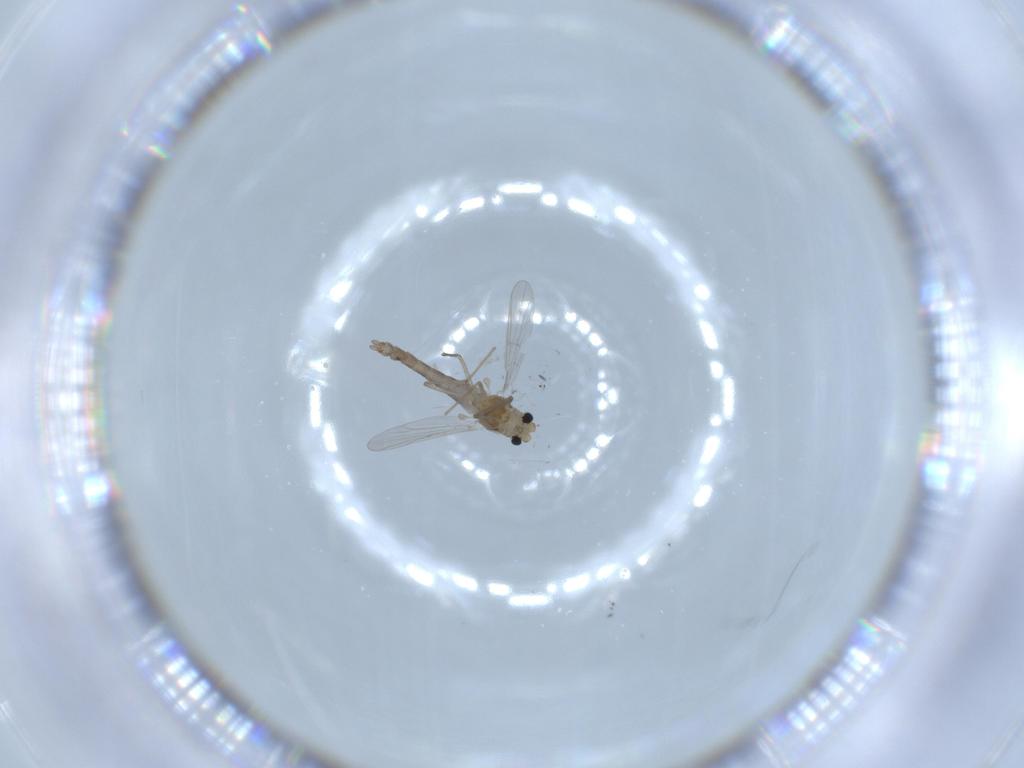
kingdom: Animalia
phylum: Arthropoda
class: Insecta
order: Diptera
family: Chironomidae
